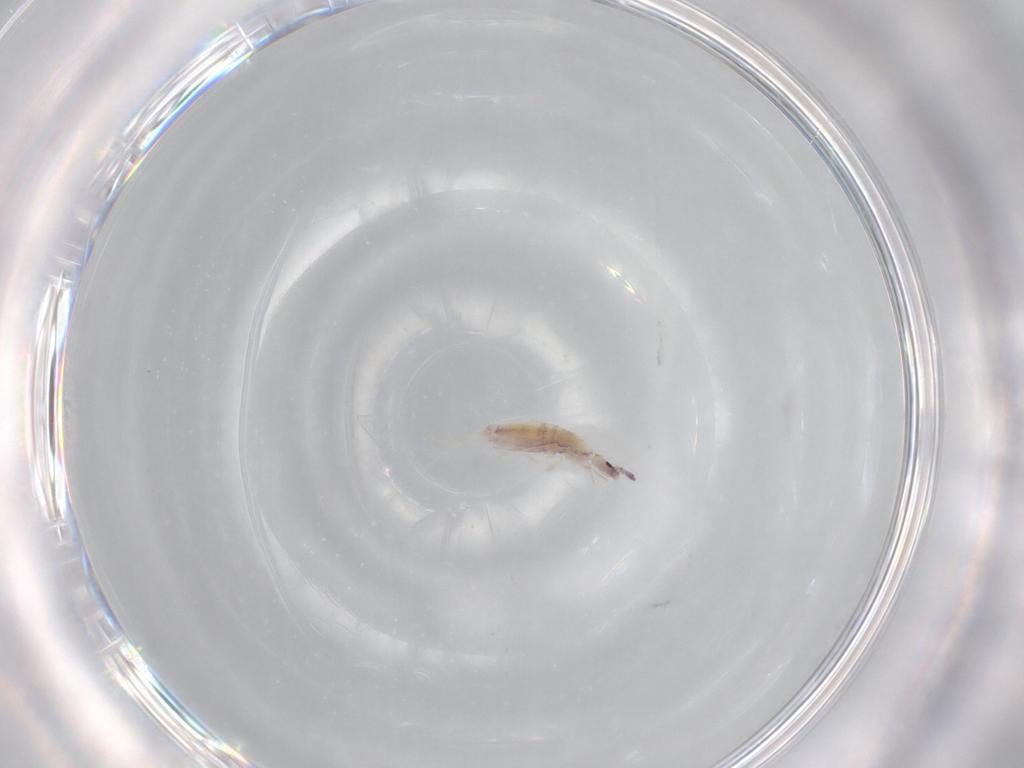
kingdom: Animalia
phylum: Arthropoda
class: Collembola
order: Poduromorpha
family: Hypogastruridae
